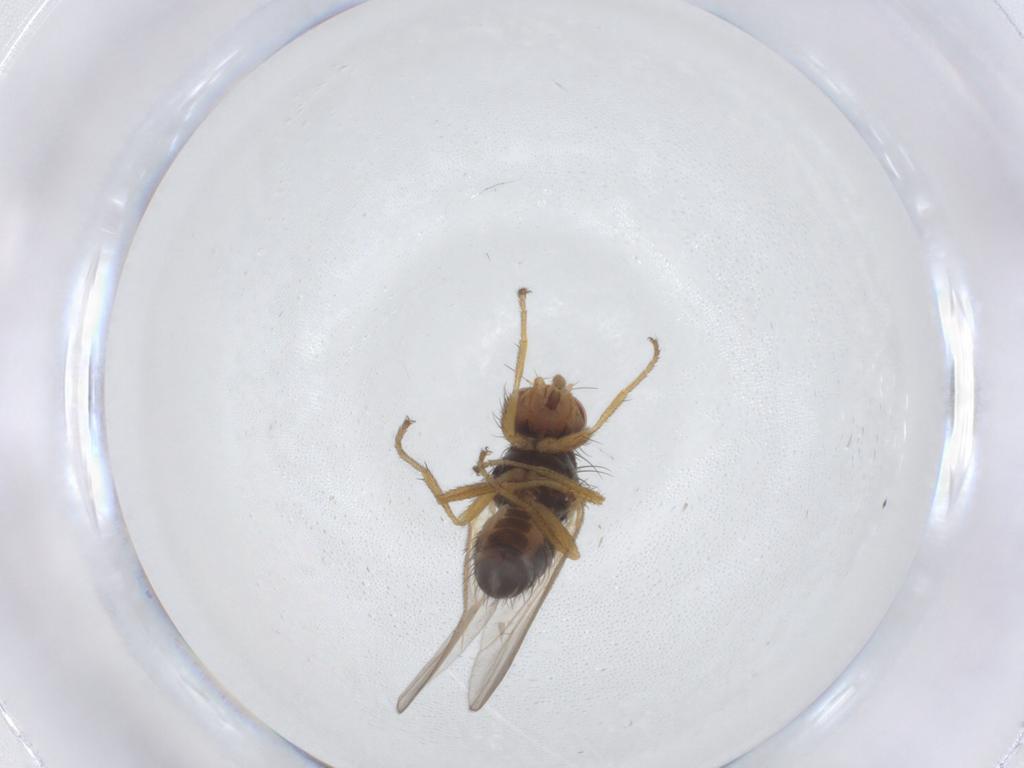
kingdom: Animalia
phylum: Arthropoda
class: Insecta
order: Diptera
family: Heleomyzidae
